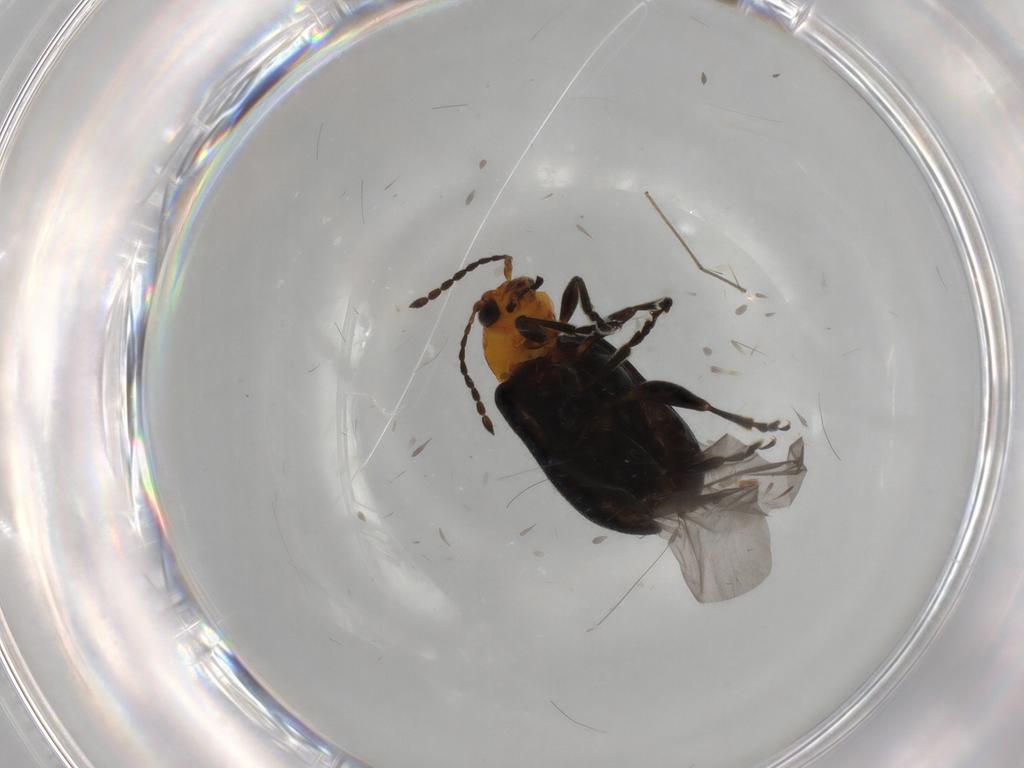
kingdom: Animalia
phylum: Arthropoda
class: Insecta
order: Coleoptera
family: Chrysomelidae
